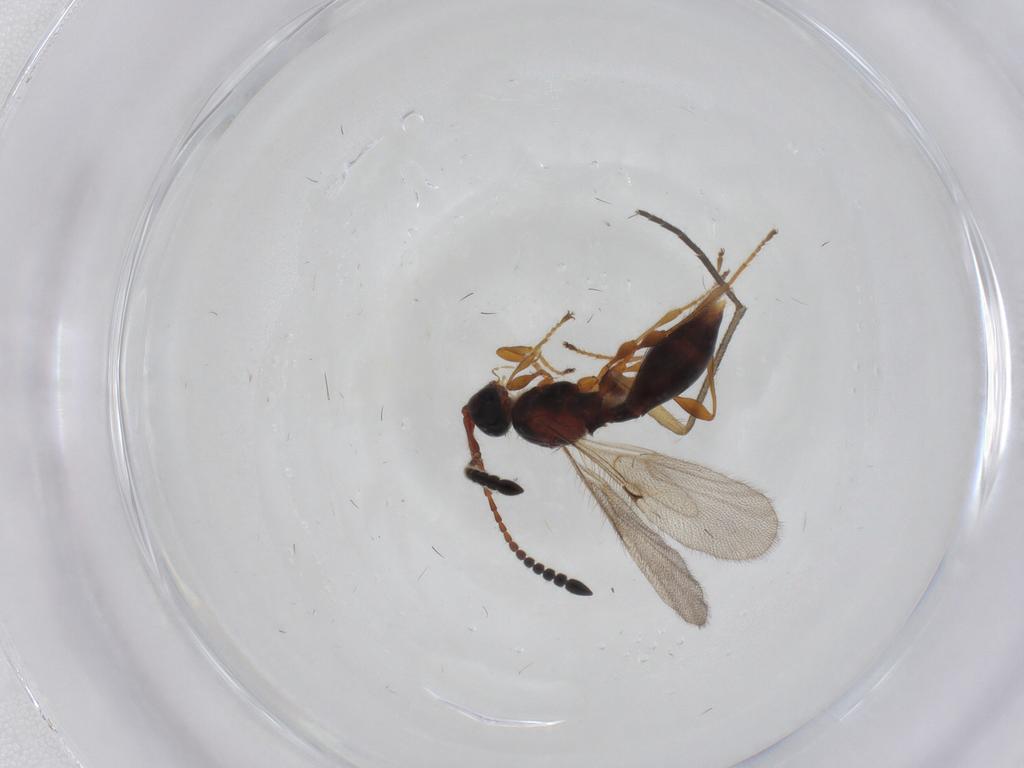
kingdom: Animalia
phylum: Arthropoda
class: Insecta
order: Hymenoptera
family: Diapriidae
